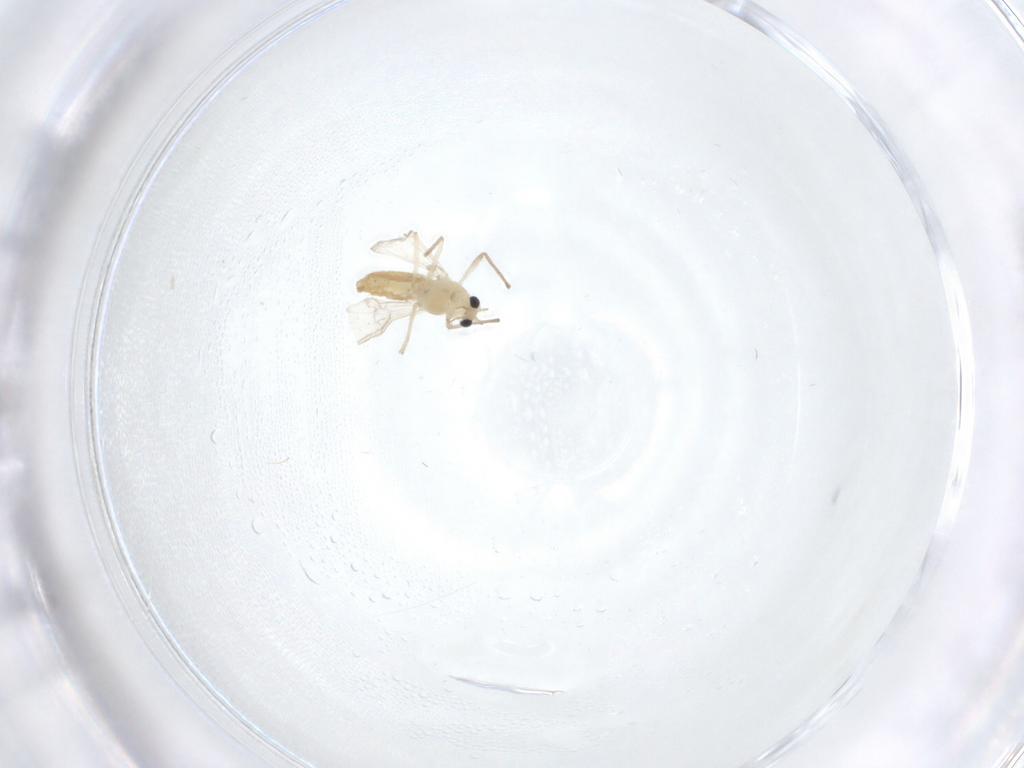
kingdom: Animalia
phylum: Arthropoda
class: Insecta
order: Diptera
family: Chironomidae
